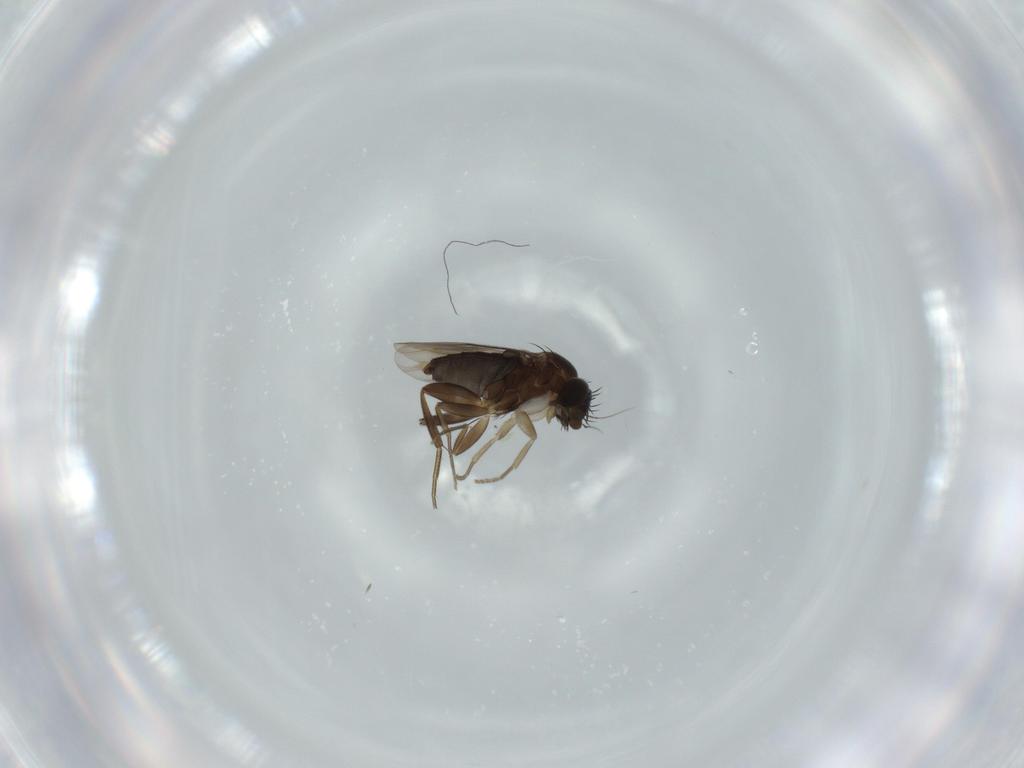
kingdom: Animalia
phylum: Arthropoda
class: Insecta
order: Diptera
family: Phoridae
